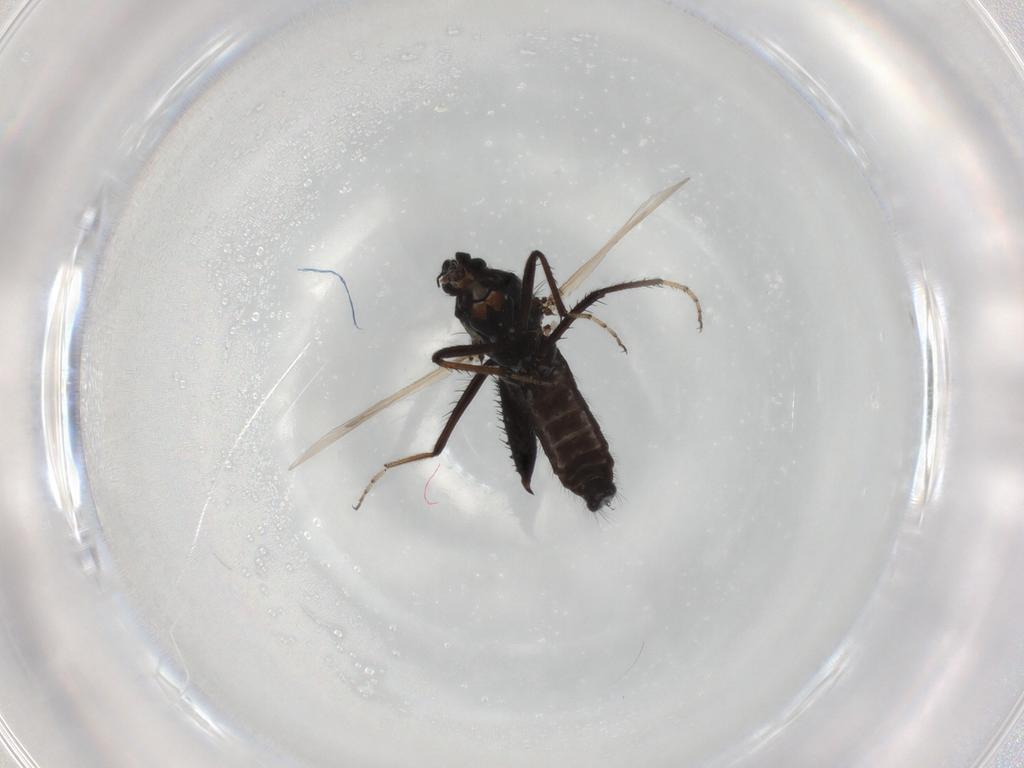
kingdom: Animalia
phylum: Arthropoda
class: Insecta
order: Diptera
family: Ceratopogonidae
